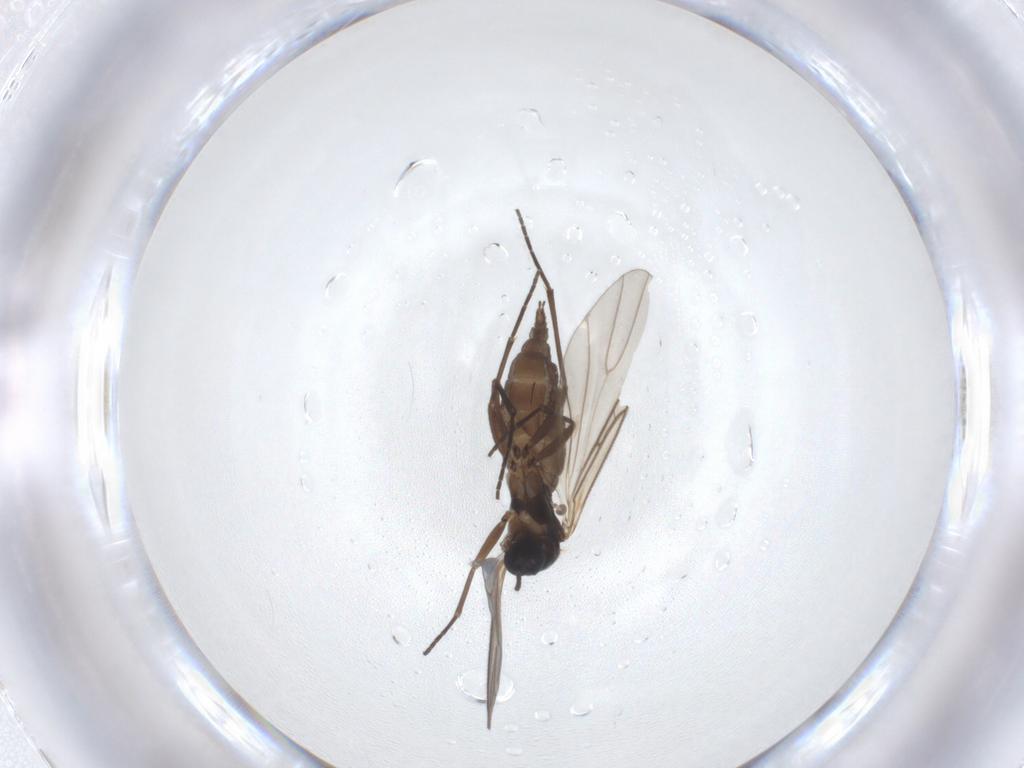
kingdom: Animalia
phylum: Arthropoda
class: Insecta
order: Diptera
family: Sciaridae
